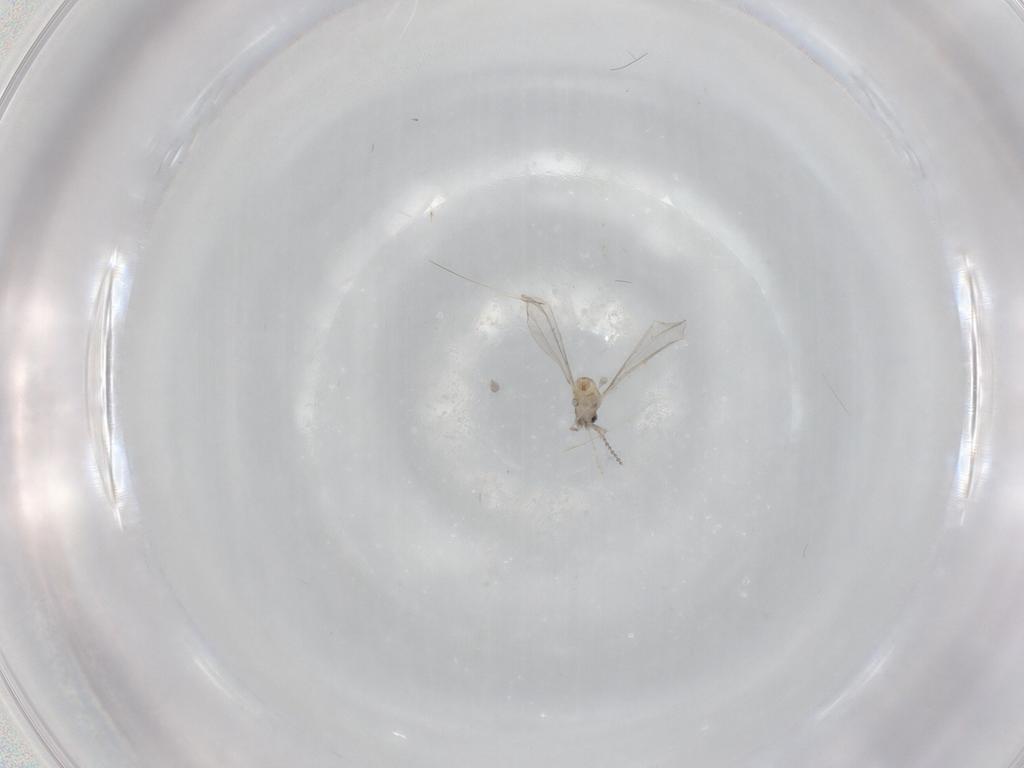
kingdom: Animalia
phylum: Arthropoda
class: Insecta
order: Diptera
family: Cecidomyiidae
